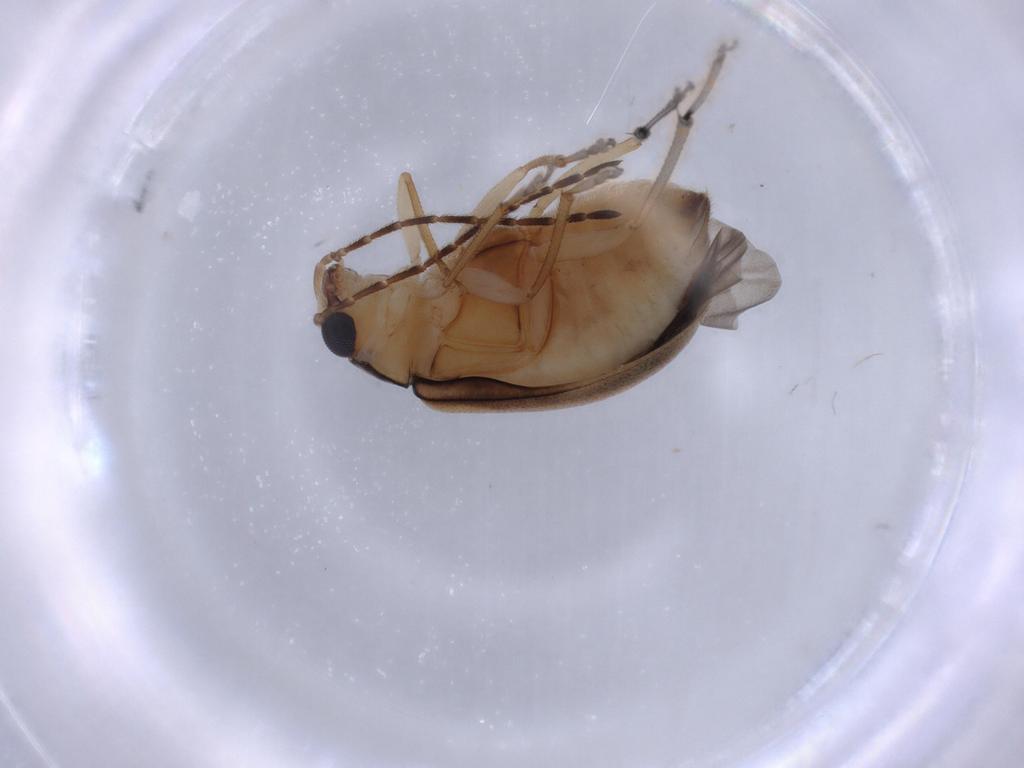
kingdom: Animalia
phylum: Arthropoda
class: Insecta
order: Coleoptera
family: Chrysomelidae
